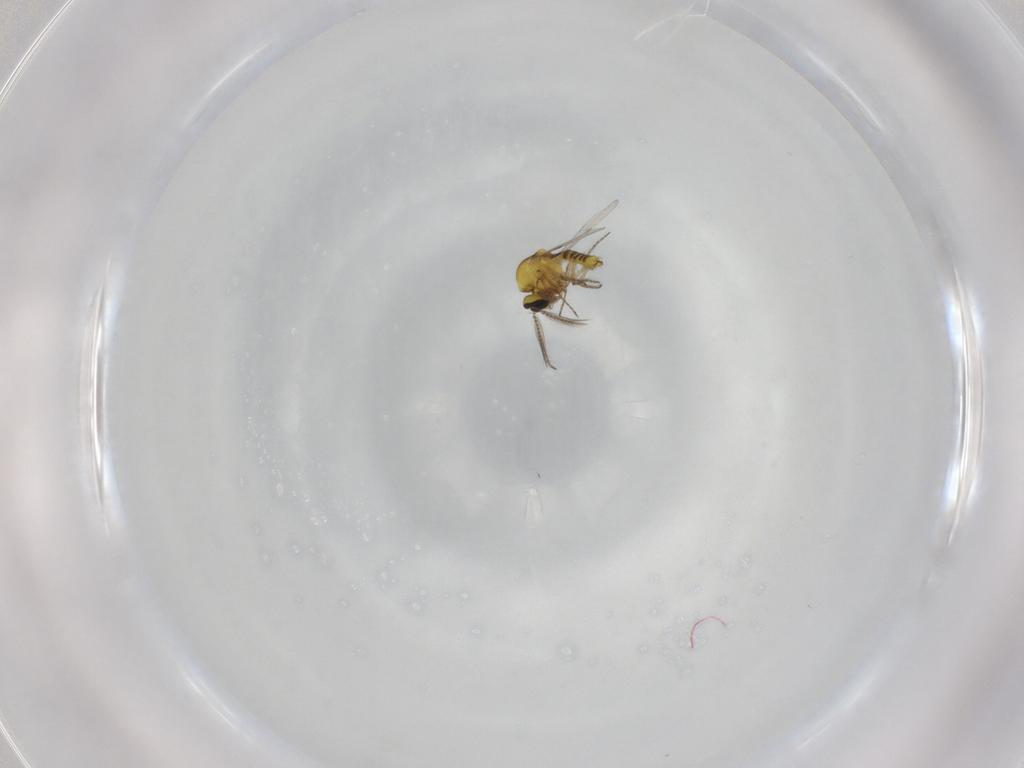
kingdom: Animalia
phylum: Arthropoda
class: Insecta
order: Diptera
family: Ceratopogonidae
